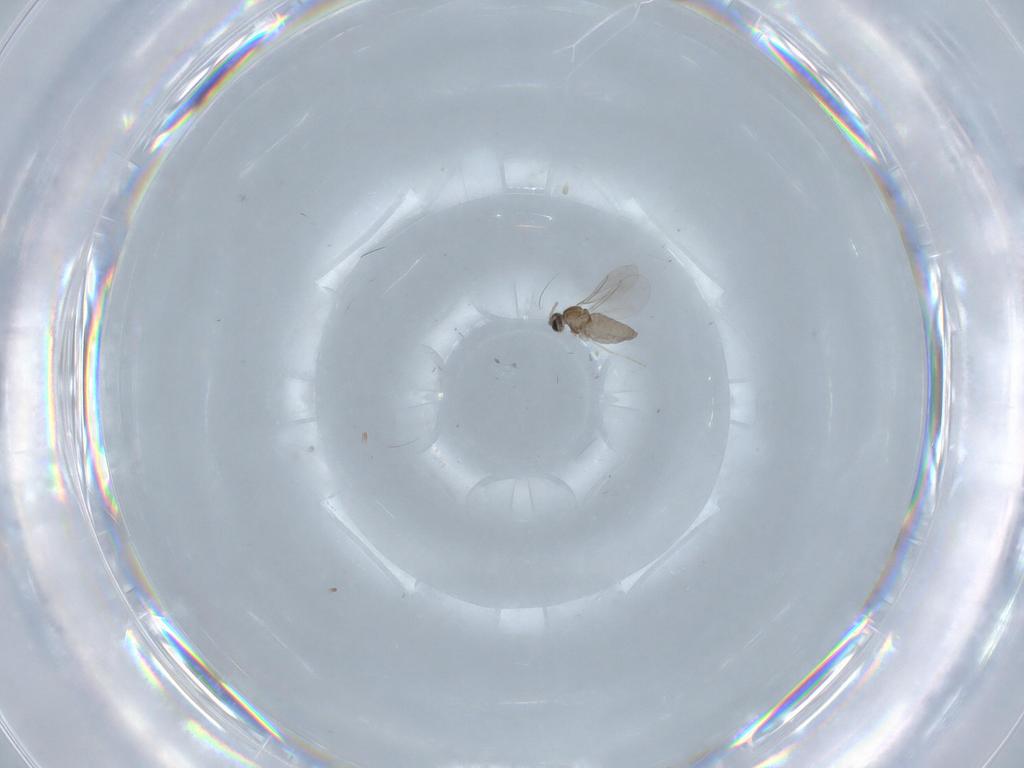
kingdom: Animalia
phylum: Arthropoda
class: Insecta
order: Diptera
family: Cecidomyiidae
